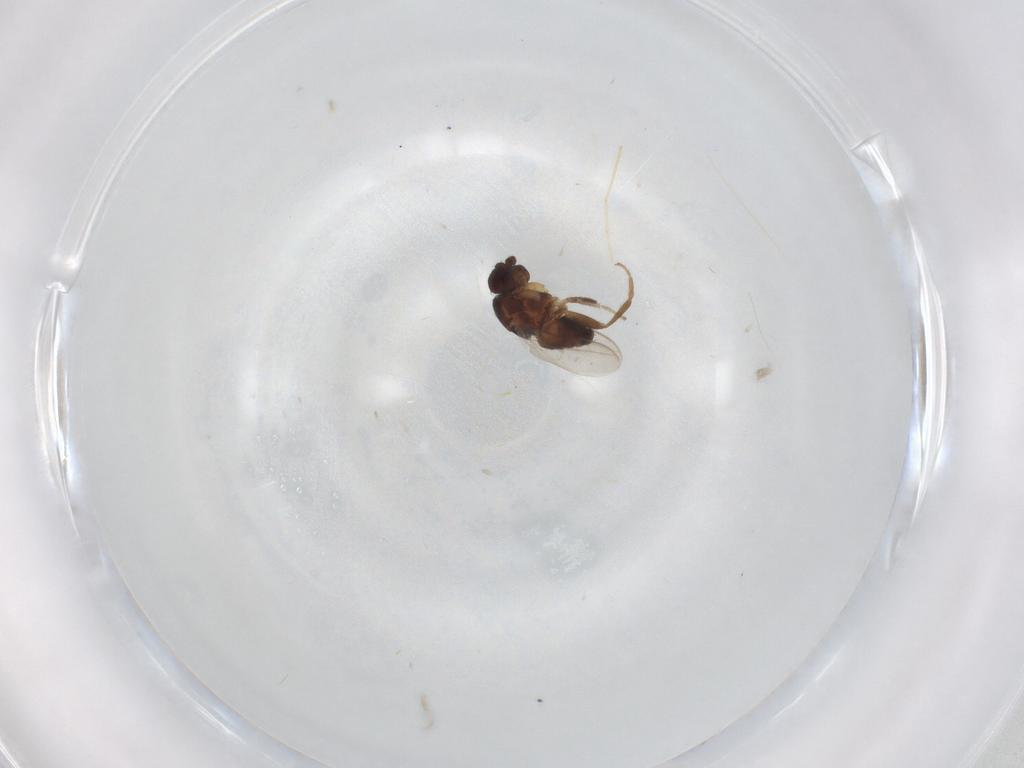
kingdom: Animalia
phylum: Arthropoda
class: Insecta
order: Diptera
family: Sphaeroceridae
